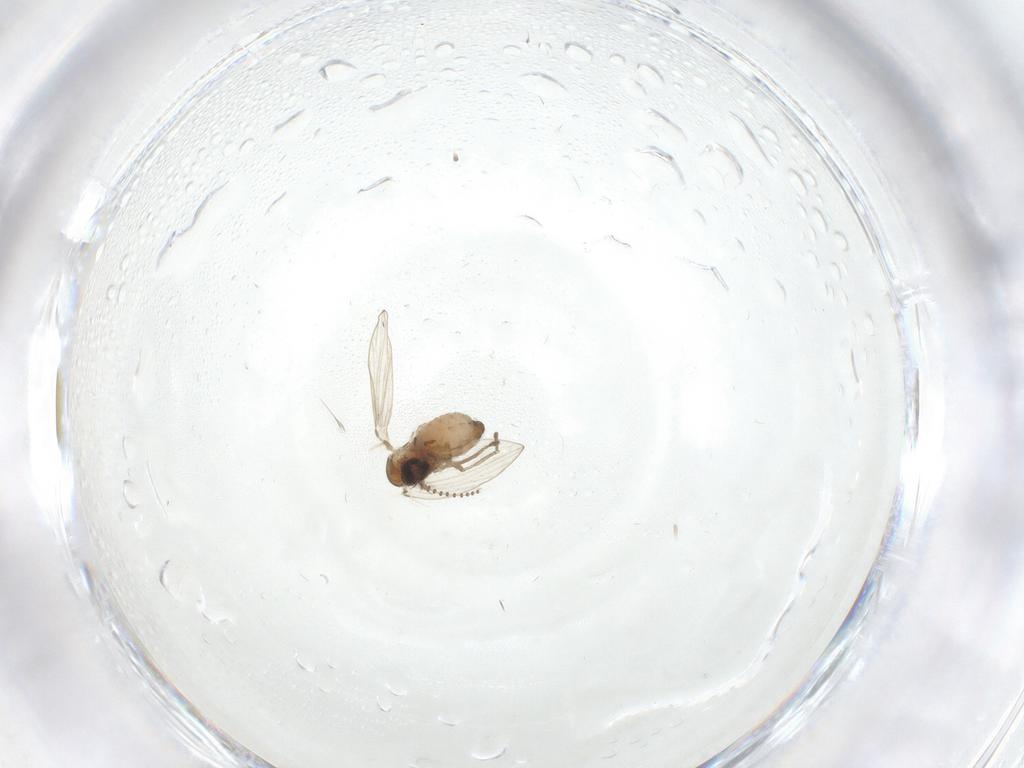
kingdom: Animalia
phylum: Arthropoda
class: Insecta
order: Diptera
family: Psychodidae
